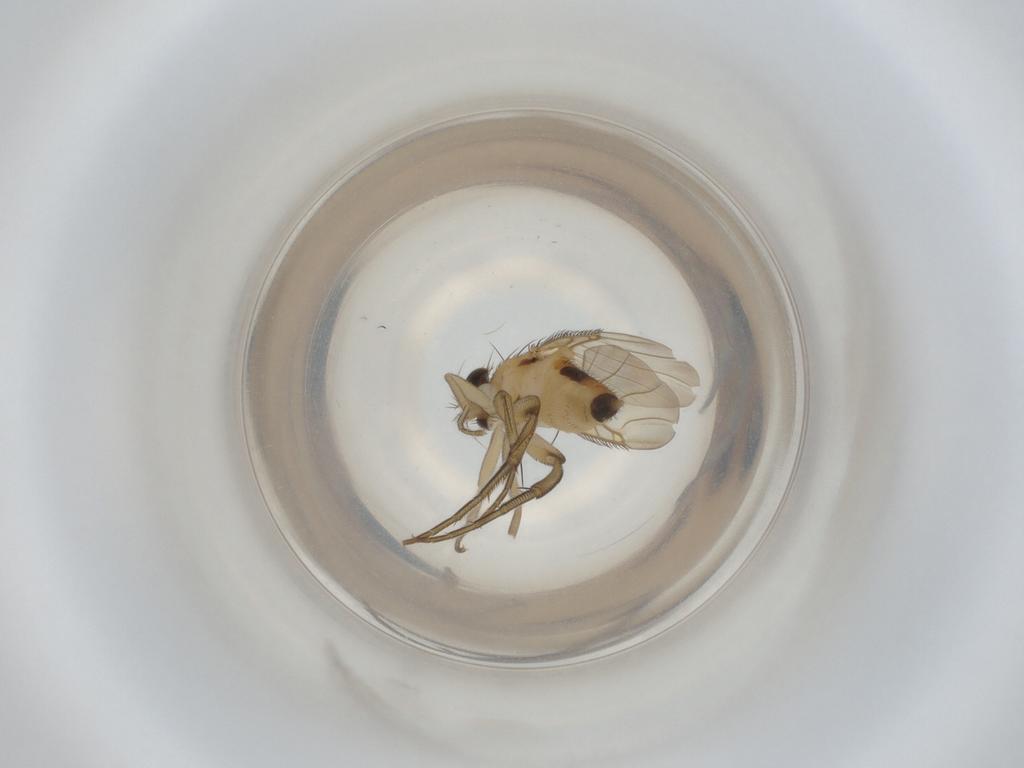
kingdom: Animalia
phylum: Arthropoda
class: Insecta
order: Diptera
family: Phoridae
